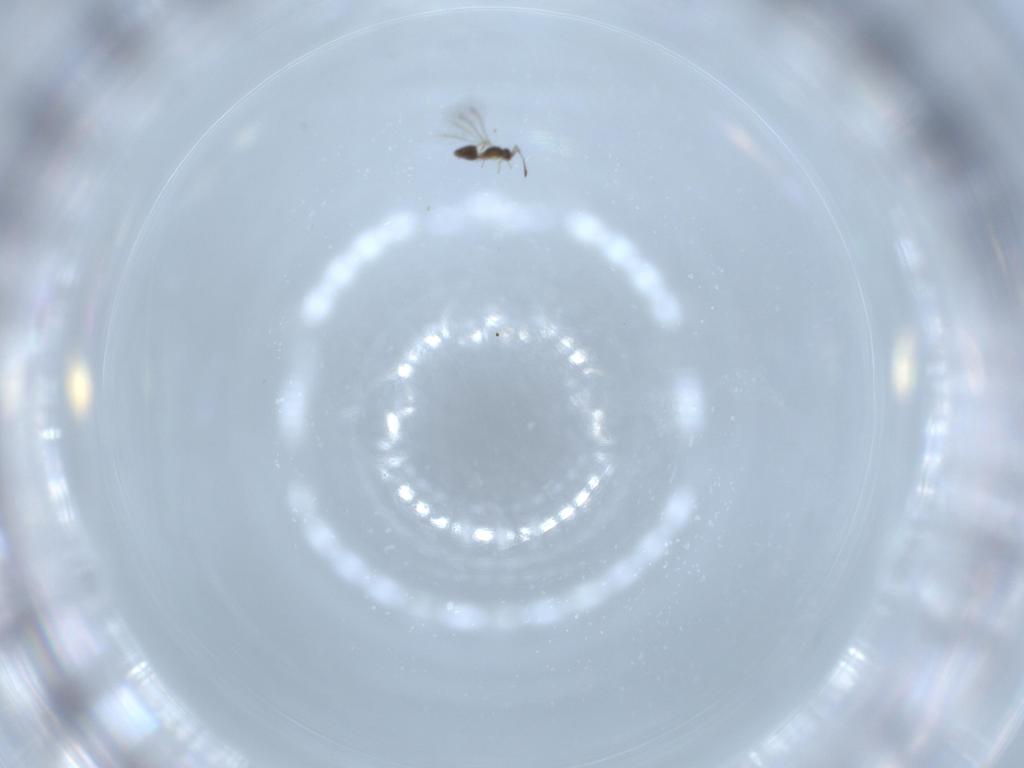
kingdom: Animalia
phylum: Arthropoda
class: Insecta
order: Hymenoptera
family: Mymaridae
